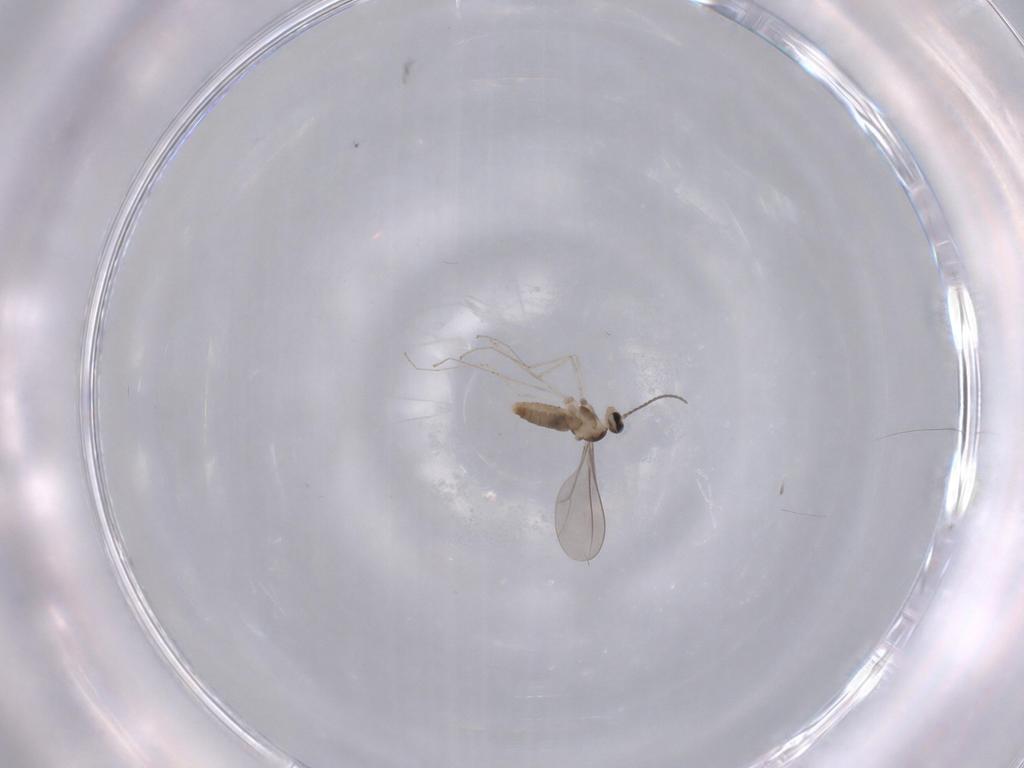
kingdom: Animalia
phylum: Arthropoda
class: Insecta
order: Diptera
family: Cecidomyiidae
